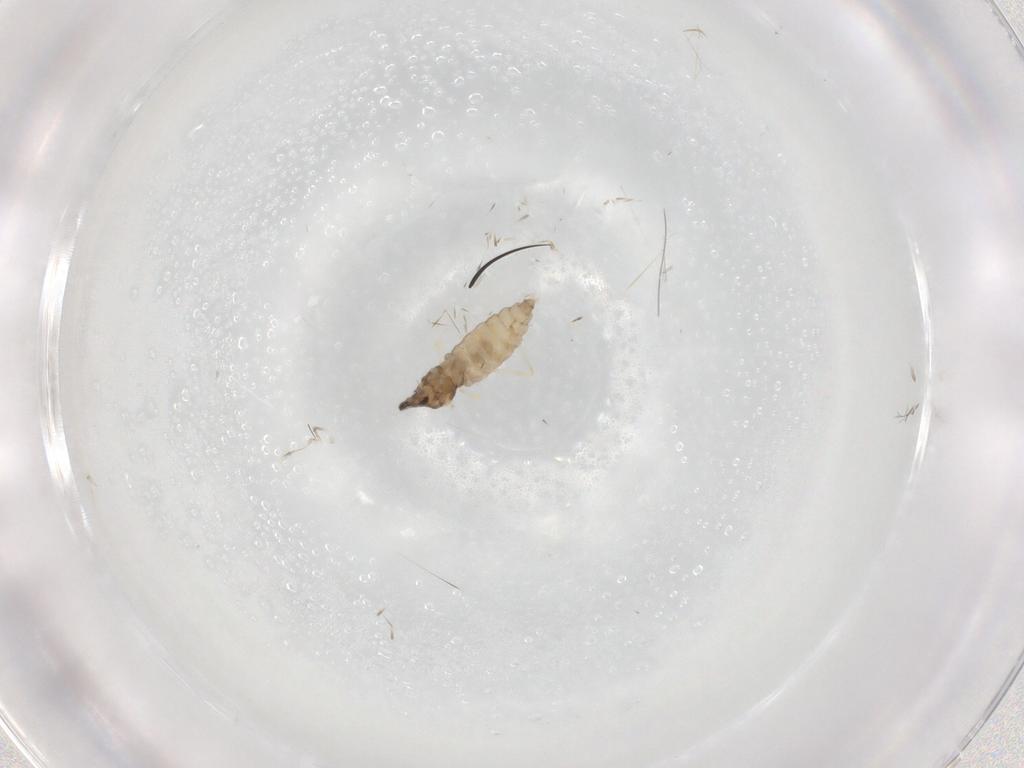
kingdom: Animalia
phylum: Arthropoda
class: Insecta
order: Diptera
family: Cecidomyiidae
